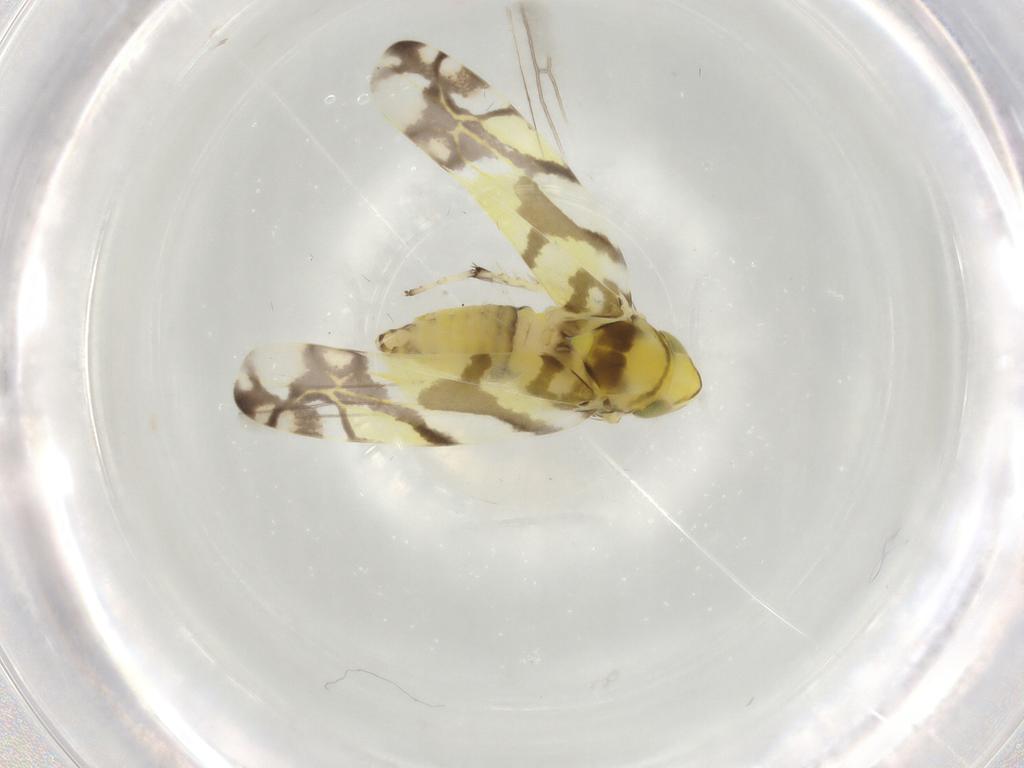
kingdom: Animalia
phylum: Arthropoda
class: Insecta
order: Hemiptera
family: Cicadellidae
